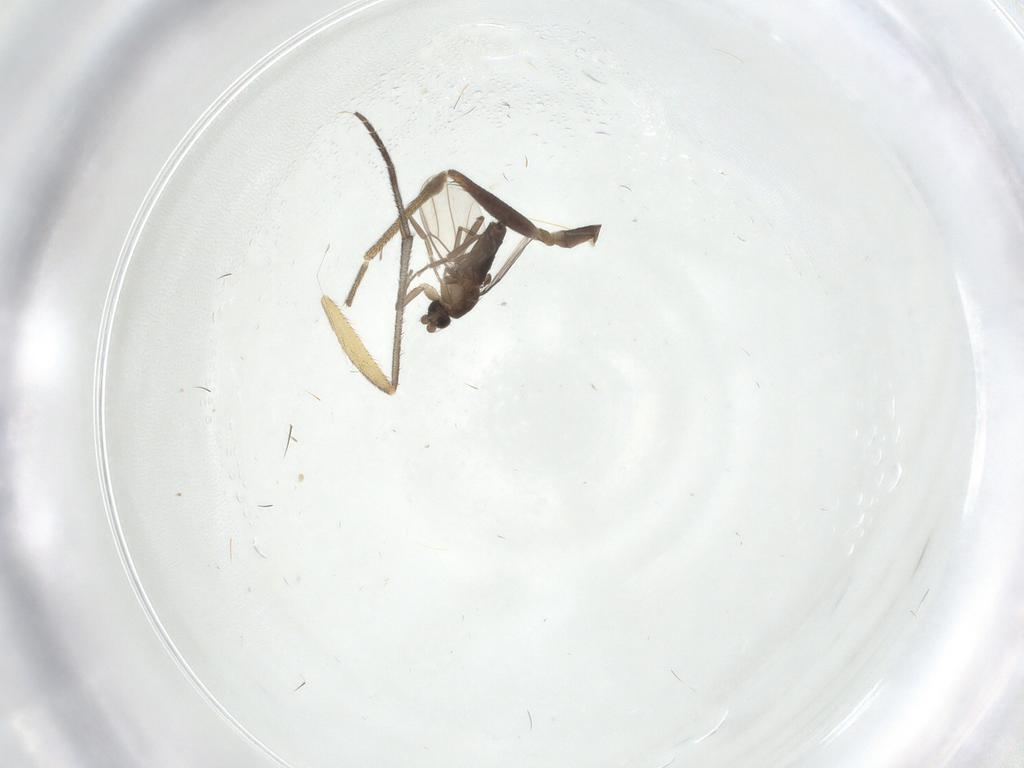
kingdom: Animalia
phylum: Arthropoda
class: Insecta
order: Diptera
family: Sciaridae
